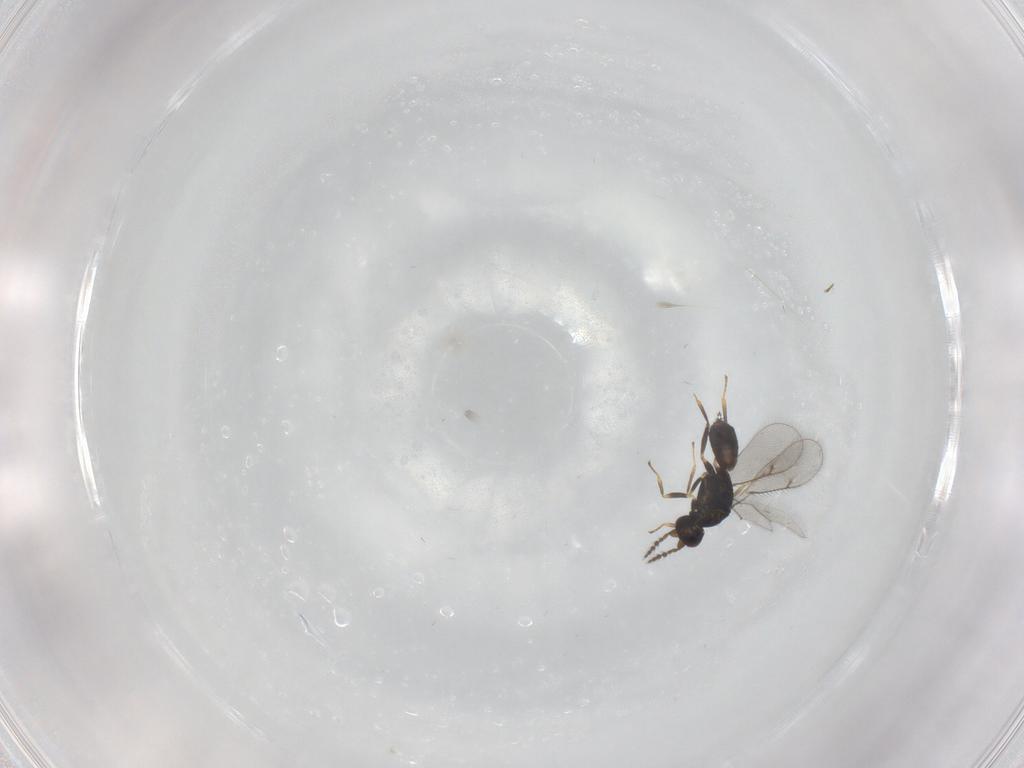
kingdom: Animalia
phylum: Arthropoda
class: Insecta
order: Hymenoptera
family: Eulophidae
